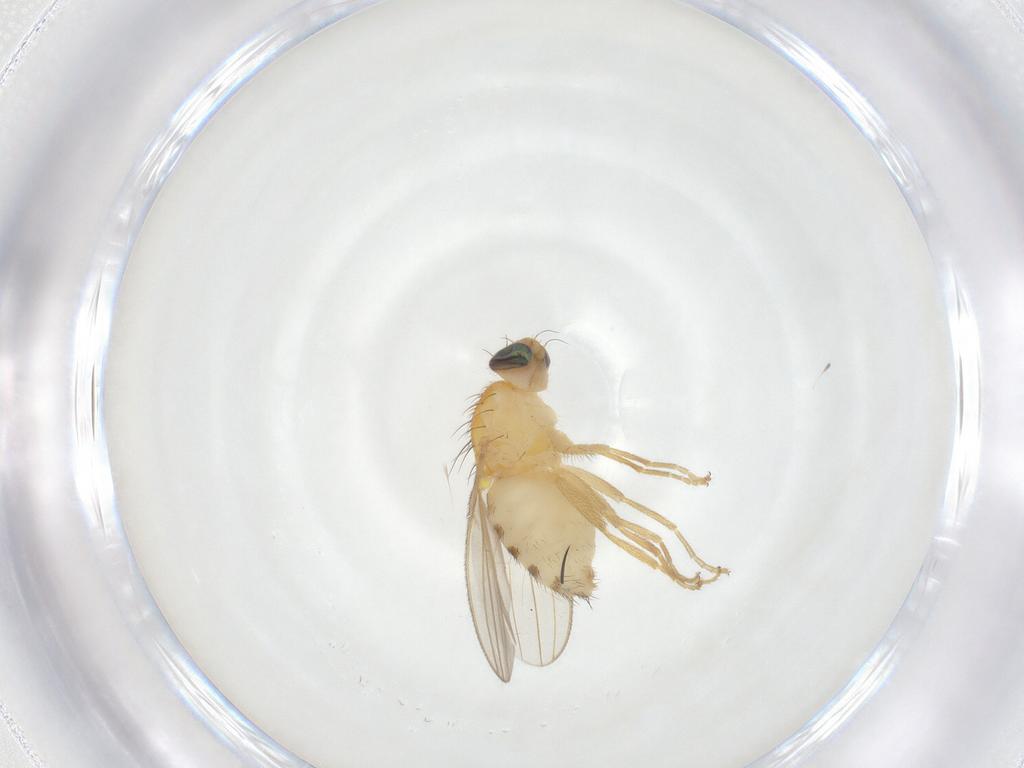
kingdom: Animalia
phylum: Arthropoda
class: Insecta
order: Diptera
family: Chyromyidae
